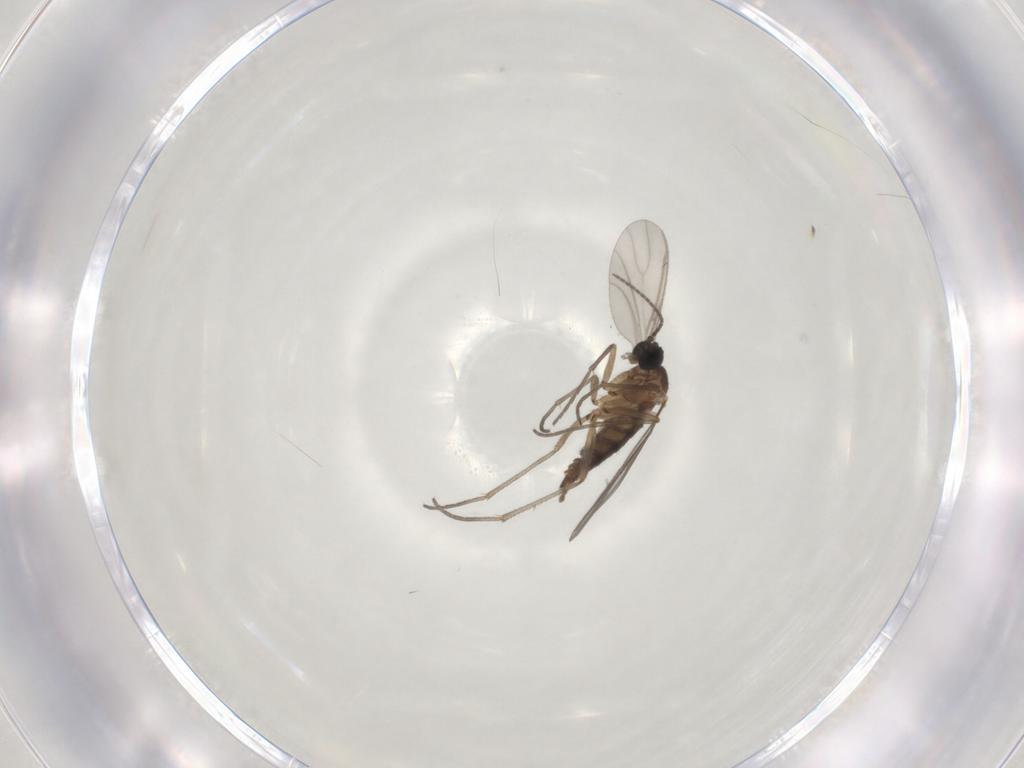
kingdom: Animalia
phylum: Arthropoda
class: Insecta
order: Diptera
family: Sciaridae
